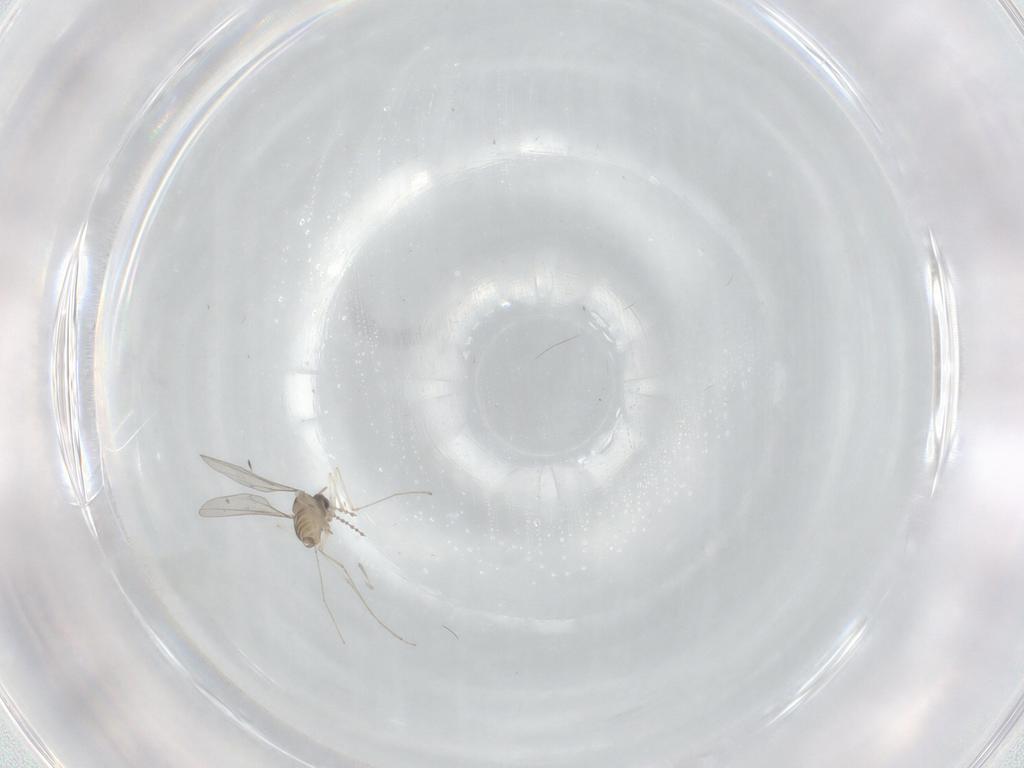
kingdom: Animalia
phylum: Arthropoda
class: Insecta
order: Diptera
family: Cecidomyiidae
